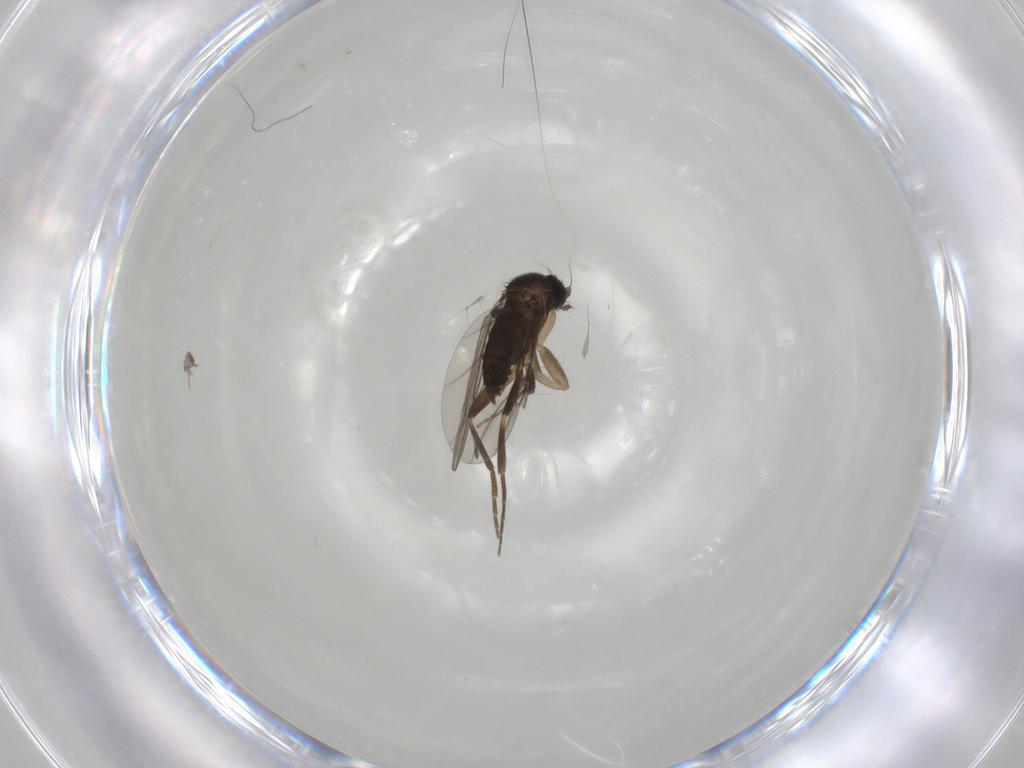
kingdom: Animalia
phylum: Arthropoda
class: Insecta
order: Diptera
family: Phoridae
